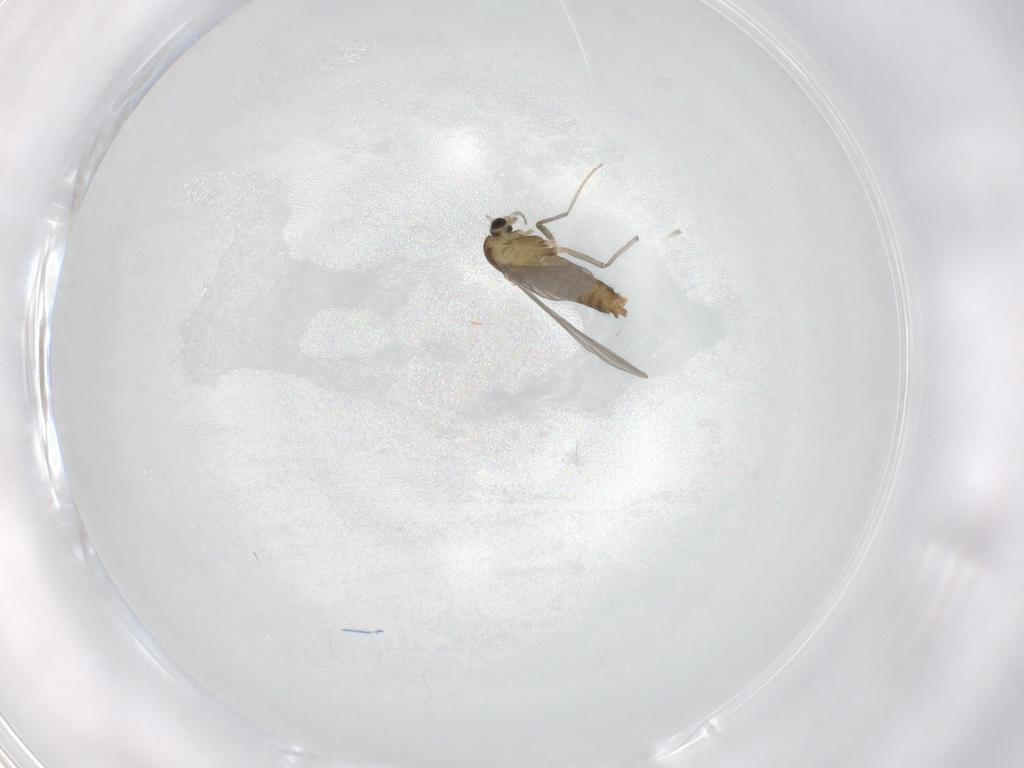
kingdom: Animalia
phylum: Arthropoda
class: Insecta
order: Diptera
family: Chironomidae
